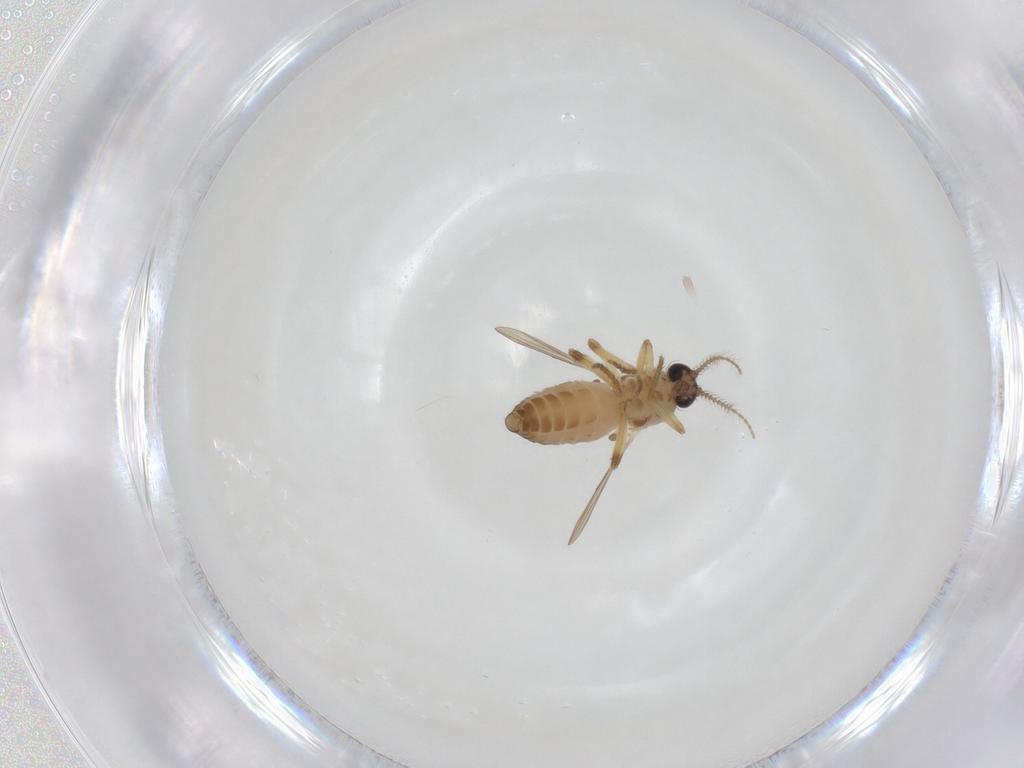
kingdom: Animalia
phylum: Arthropoda
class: Insecta
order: Diptera
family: Ceratopogonidae
